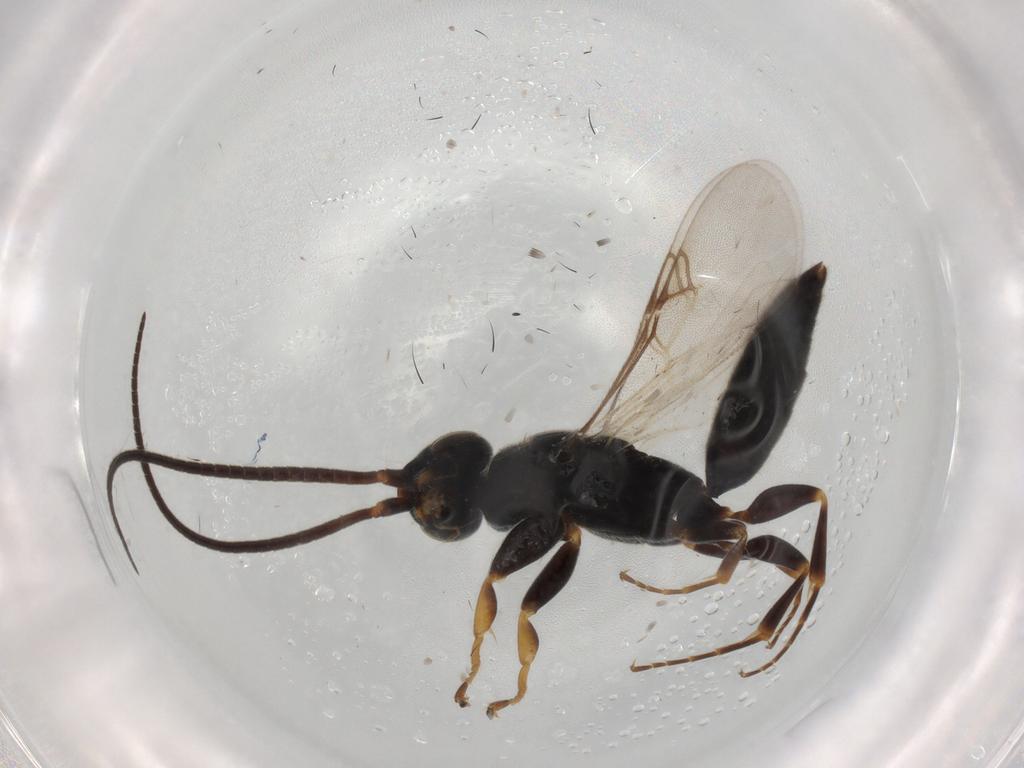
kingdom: Animalia
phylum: Arthropoda
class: Insecta
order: Hymenoptera
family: Sclerogibbidae
